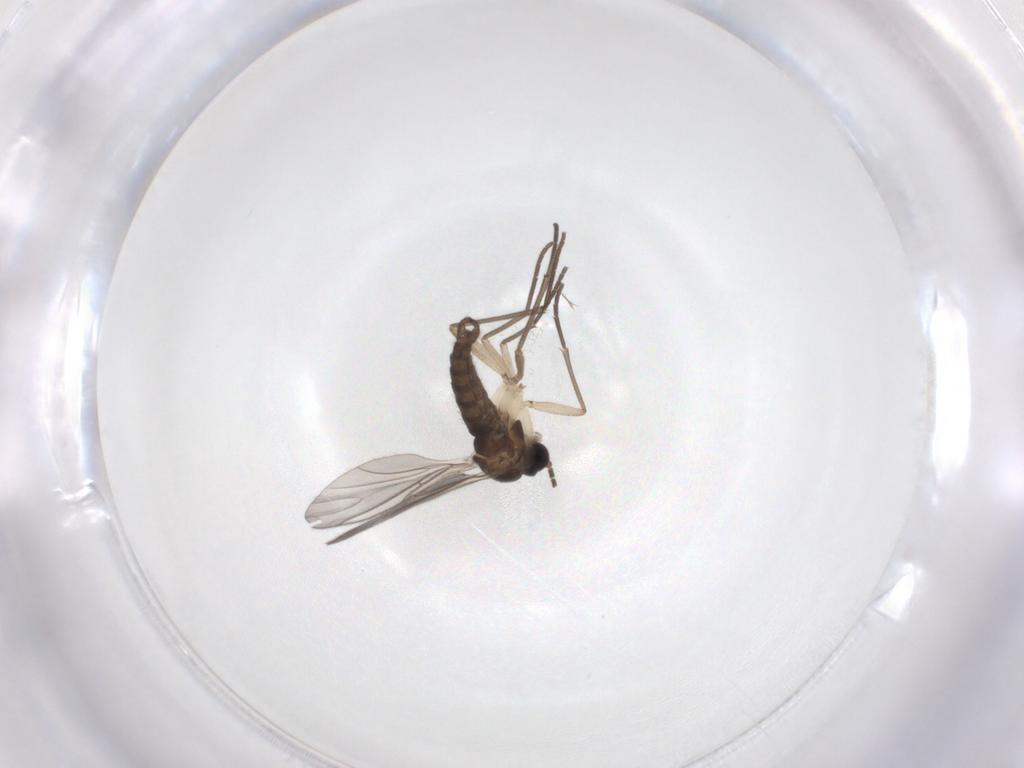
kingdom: Animalia
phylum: Arthropoda
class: Insecta
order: Diptera
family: Sciaridae
